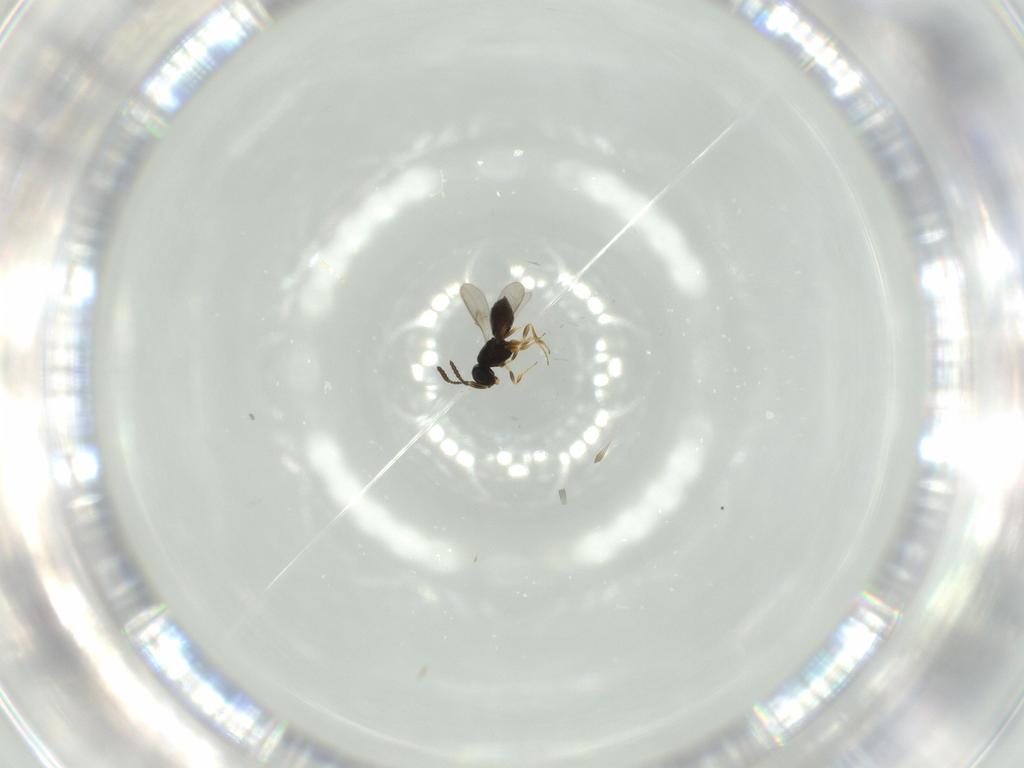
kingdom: Animalia
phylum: Arthropoda
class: Insecta
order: Hymenoptera
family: Scelionidae
